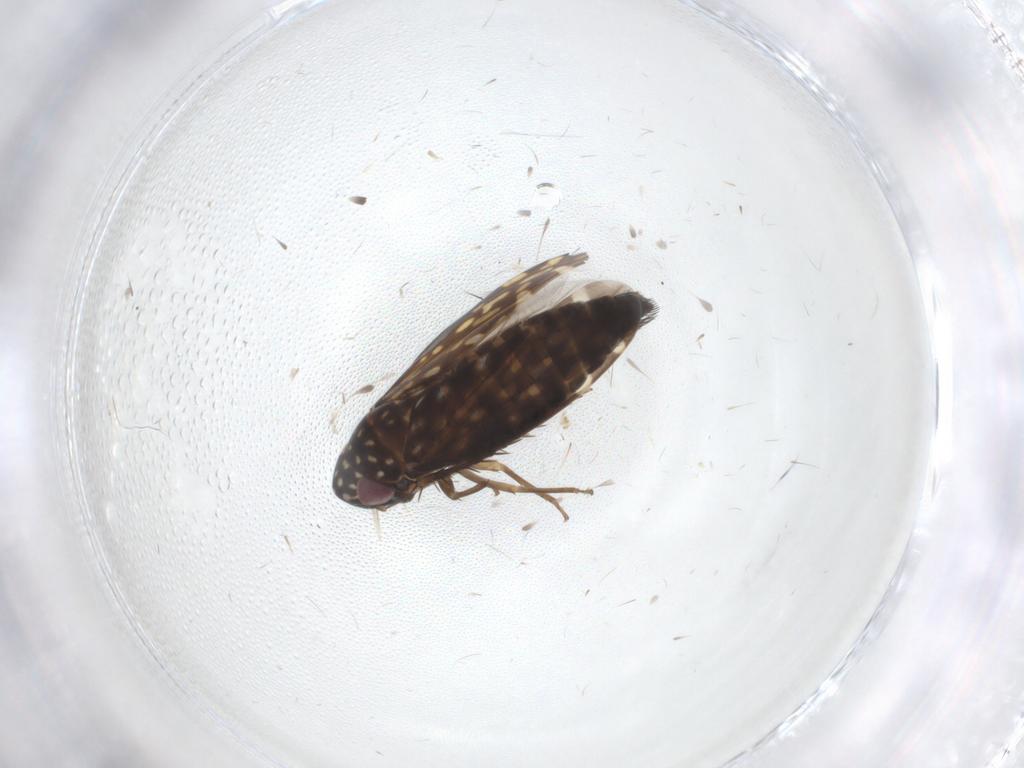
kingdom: Animalia
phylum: Arthropoda
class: Insecta
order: Hemiptera
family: Cicadellidae
